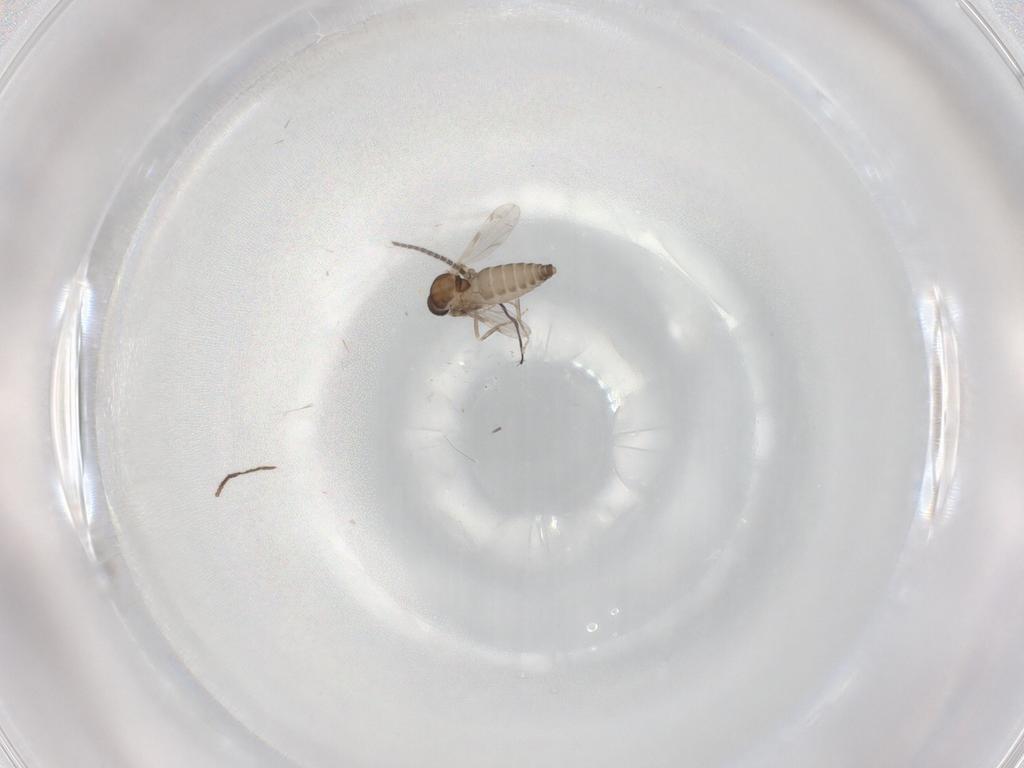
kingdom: Animalia
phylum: Arthropoda
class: Insecta
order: Diptera
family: Ceratopogonidae
